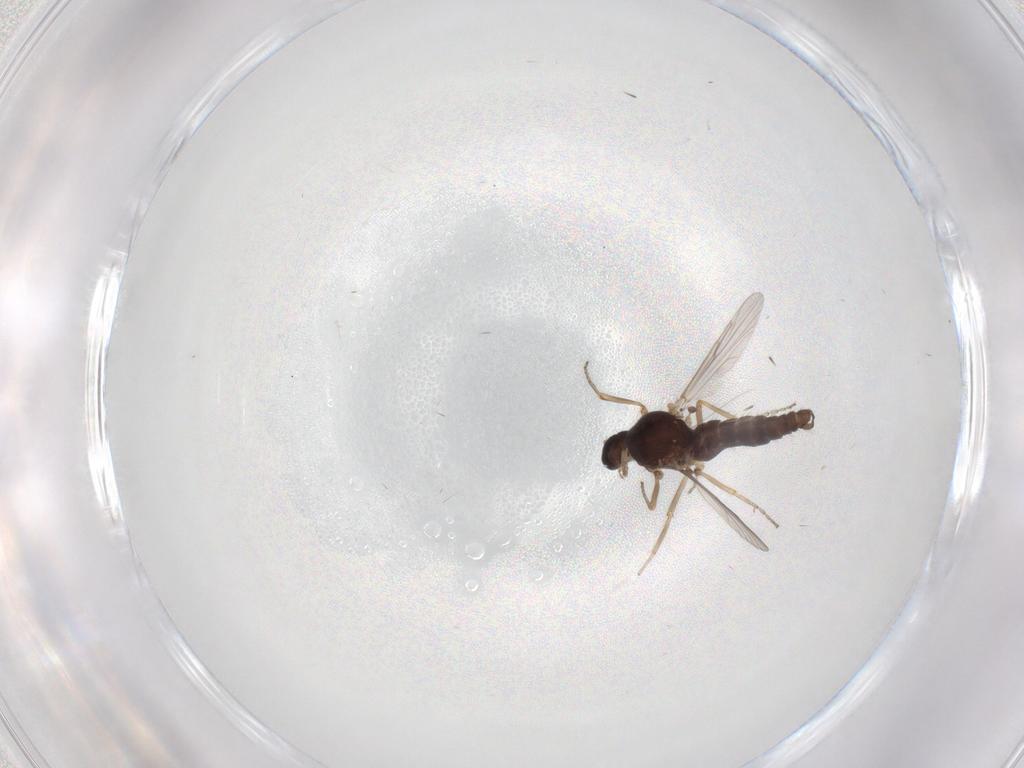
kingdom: Animalia
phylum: Arthropoda
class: Insecta
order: Diptera
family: Ceratopogonidae
